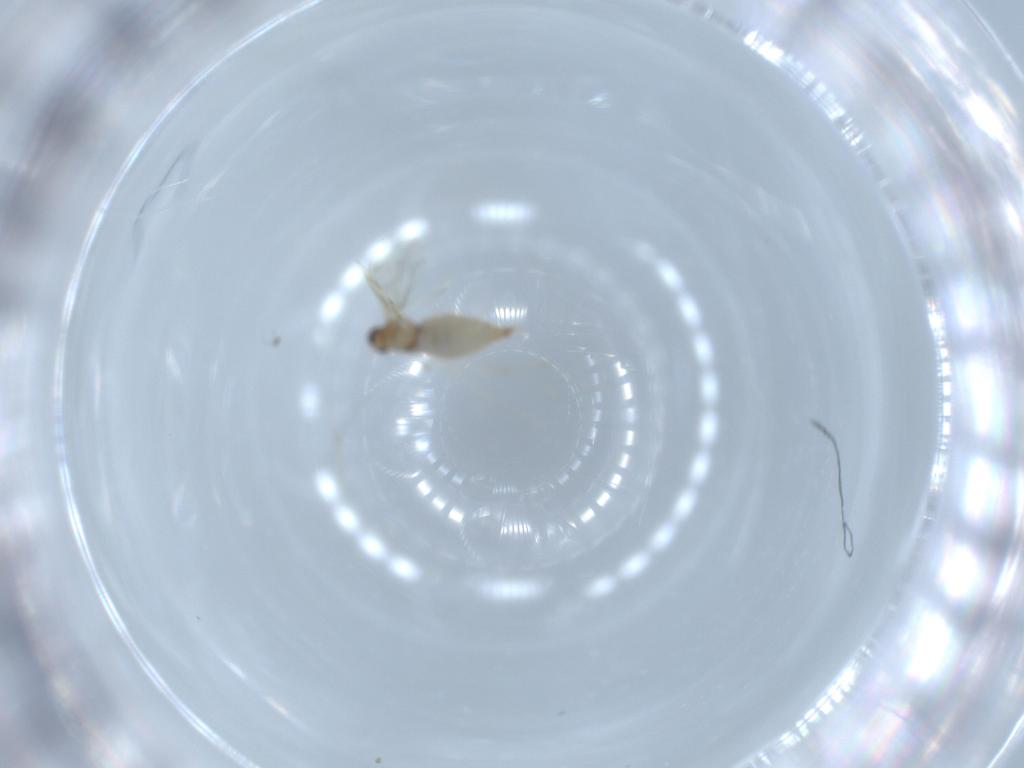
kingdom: Animalia
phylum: Arthropoda
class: Insecta
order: Diptera
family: Cecidomyiidae
